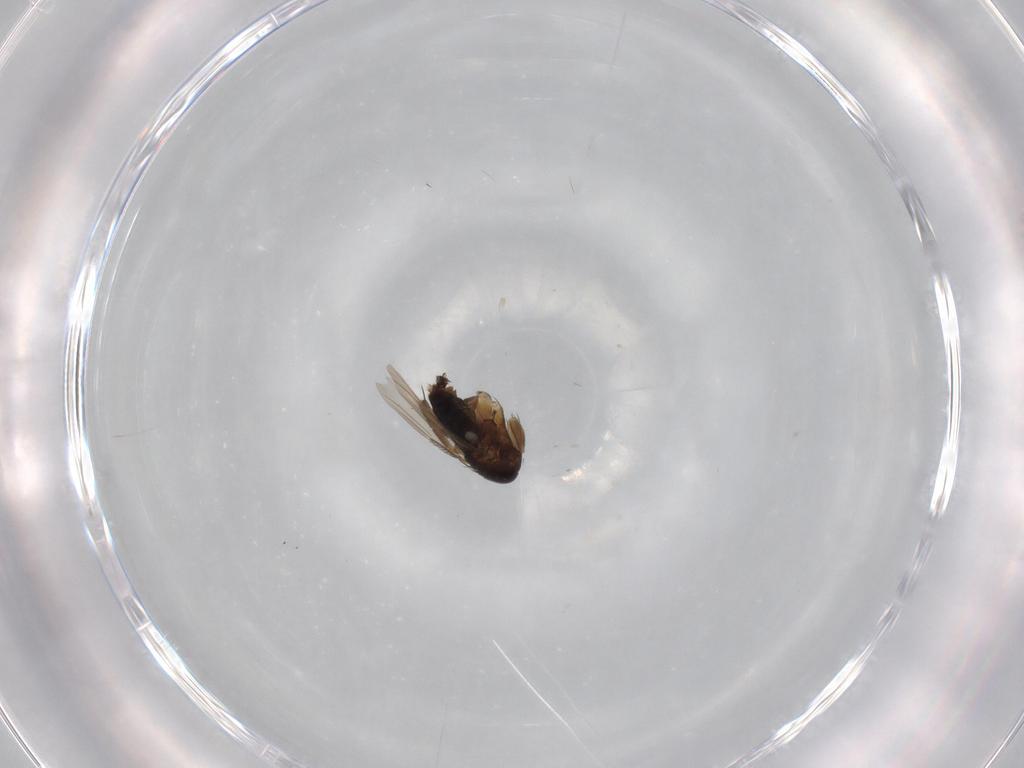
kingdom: Animalia
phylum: Arthropoda
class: Insecta
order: Diptera
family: Phoridae
